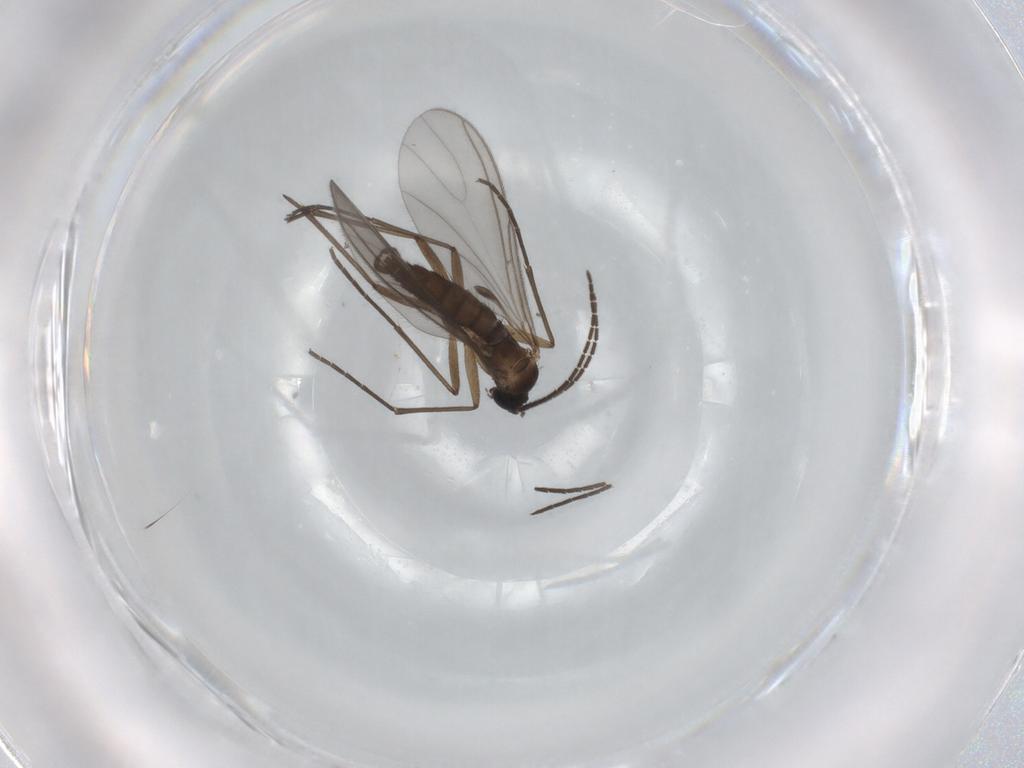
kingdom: Animalia
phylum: Arthropoda
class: Insecta
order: Diptera
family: Sciaridae
